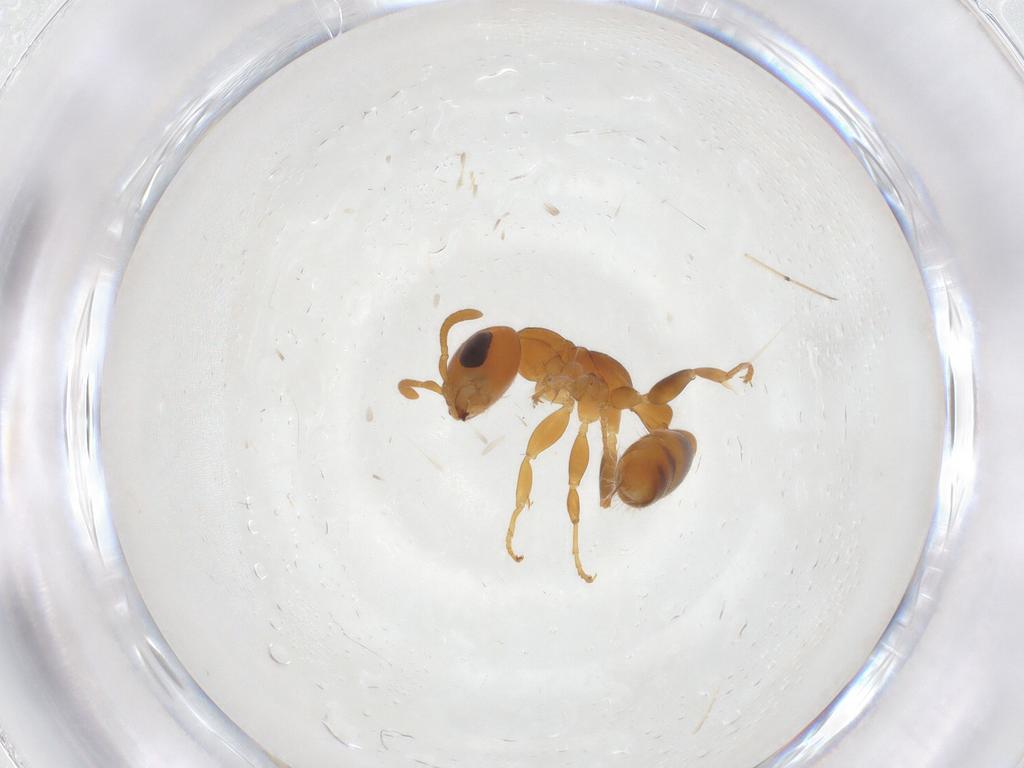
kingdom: Animalia
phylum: Arthropoda
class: Insecta
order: Hymenoptera
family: Formicidae
